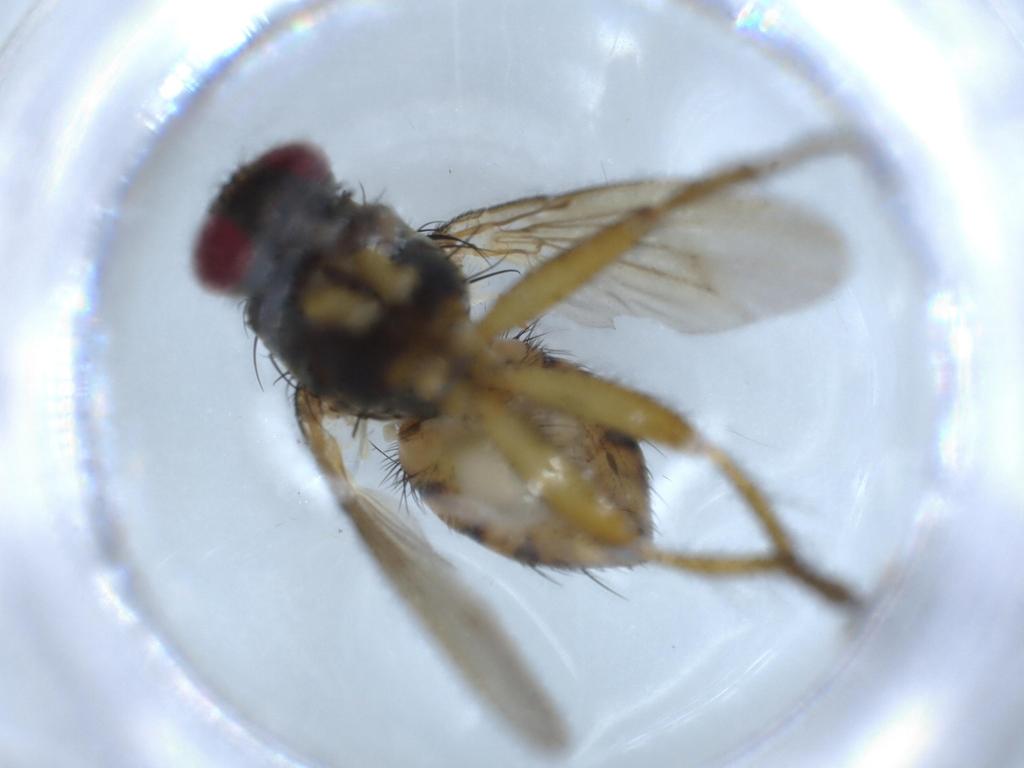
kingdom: Animalia
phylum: Arthropoda
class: Insecta
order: Diptera
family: Muscidae
